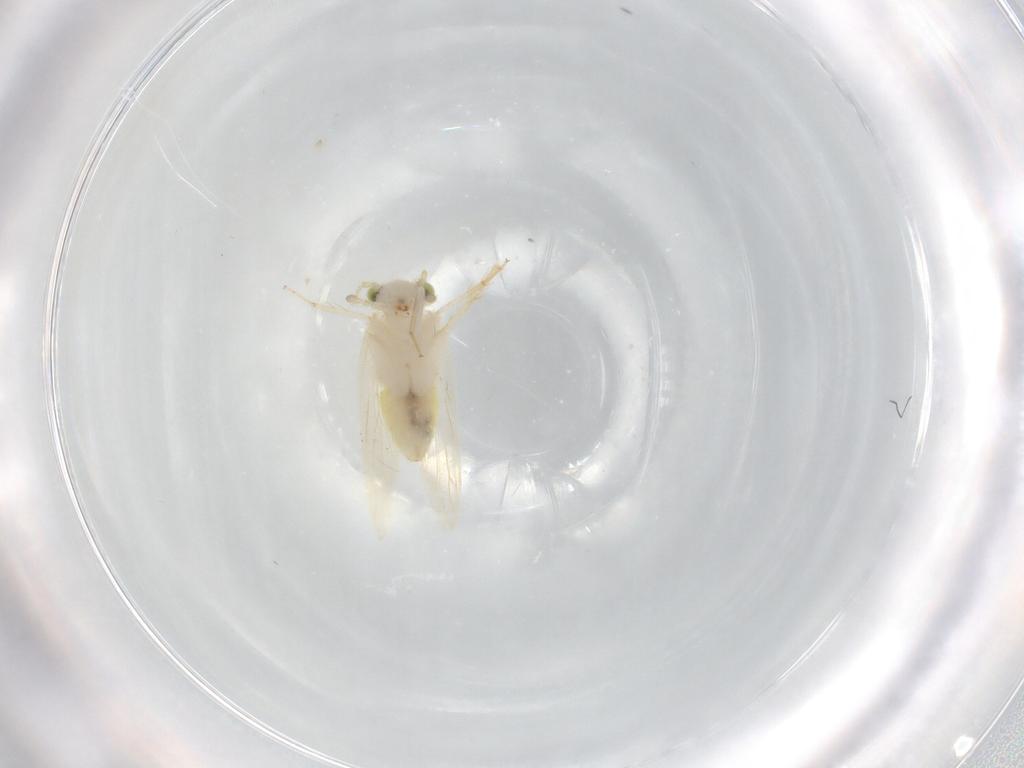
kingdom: Animalia
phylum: Arthropoda
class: Insecta
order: Psocodea
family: Lepidopsocidae
